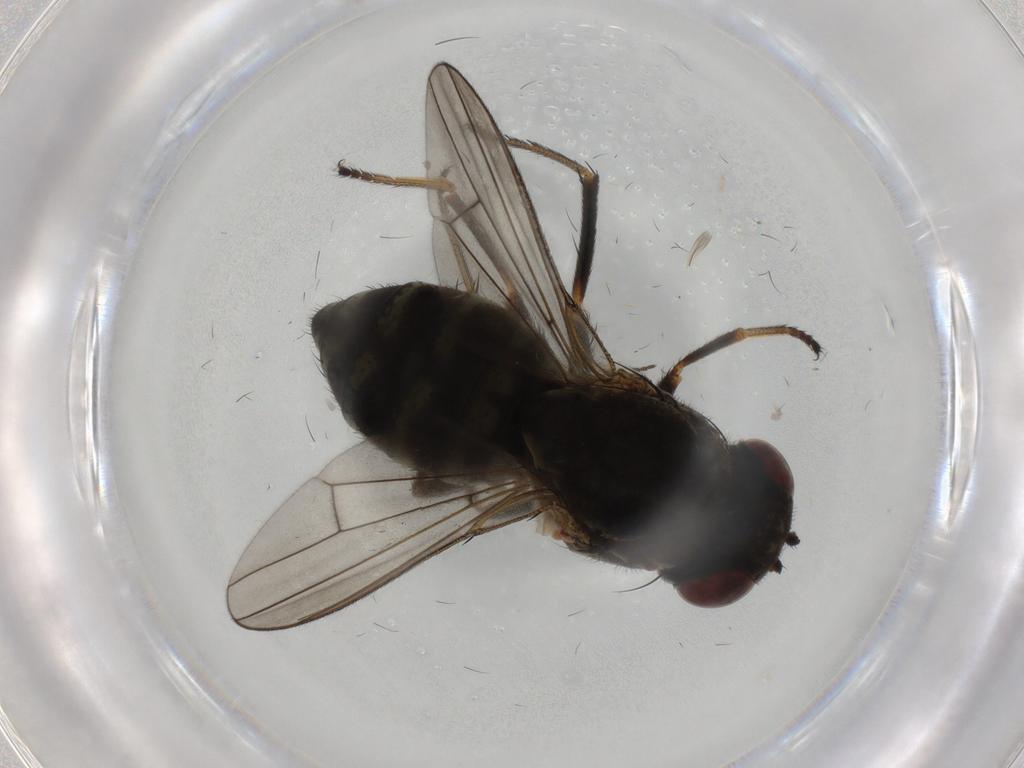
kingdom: Animalia
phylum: Arthropoda
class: Insecta
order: Diptera
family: Ephydridae
